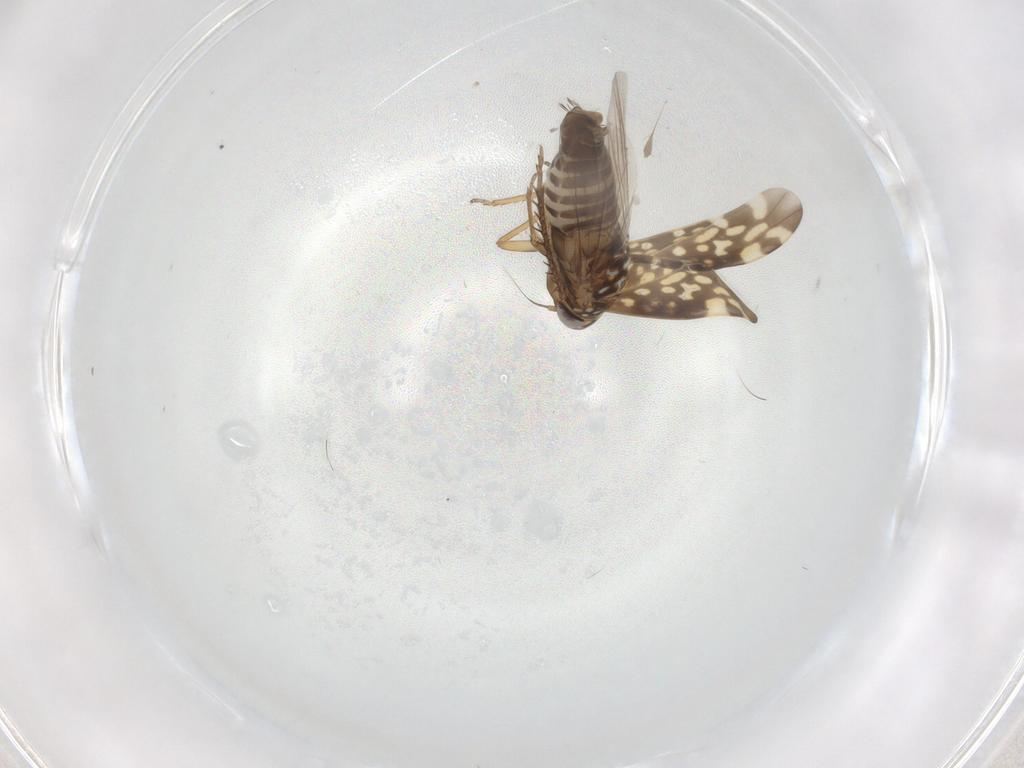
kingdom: Animalia
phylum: Arthropoda
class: Insecta
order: Hemiptera
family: Cicadellidae
